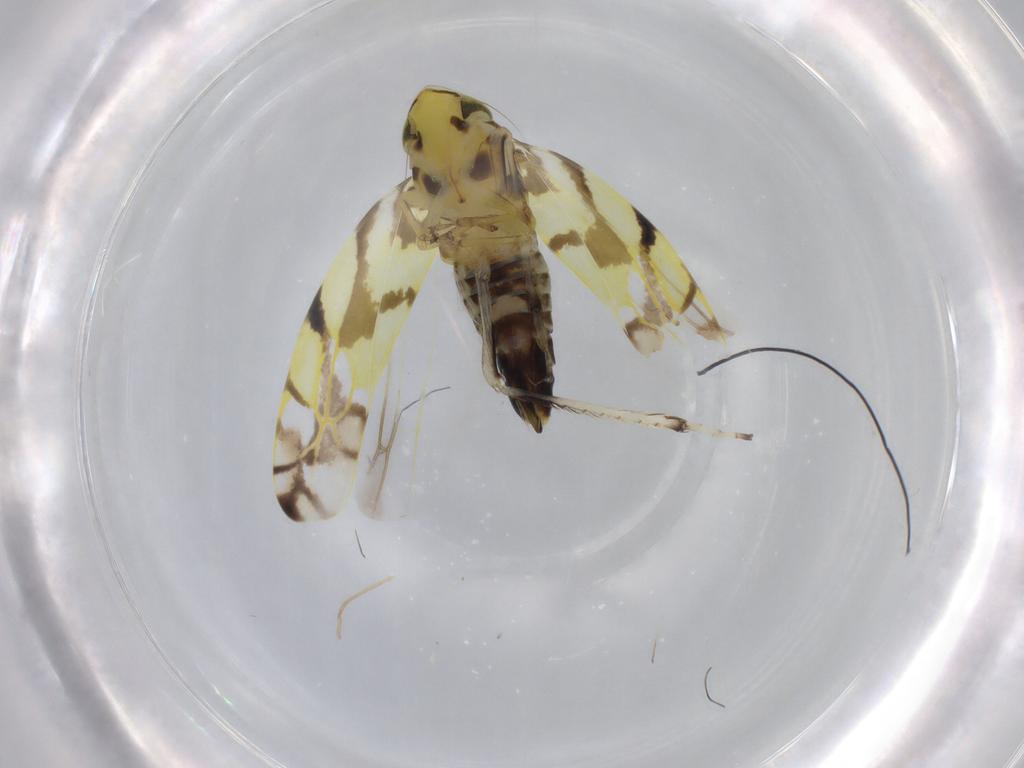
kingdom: Animalia
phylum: Arthropoda
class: Insecta
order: Hemiptera
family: Cicadellidae
